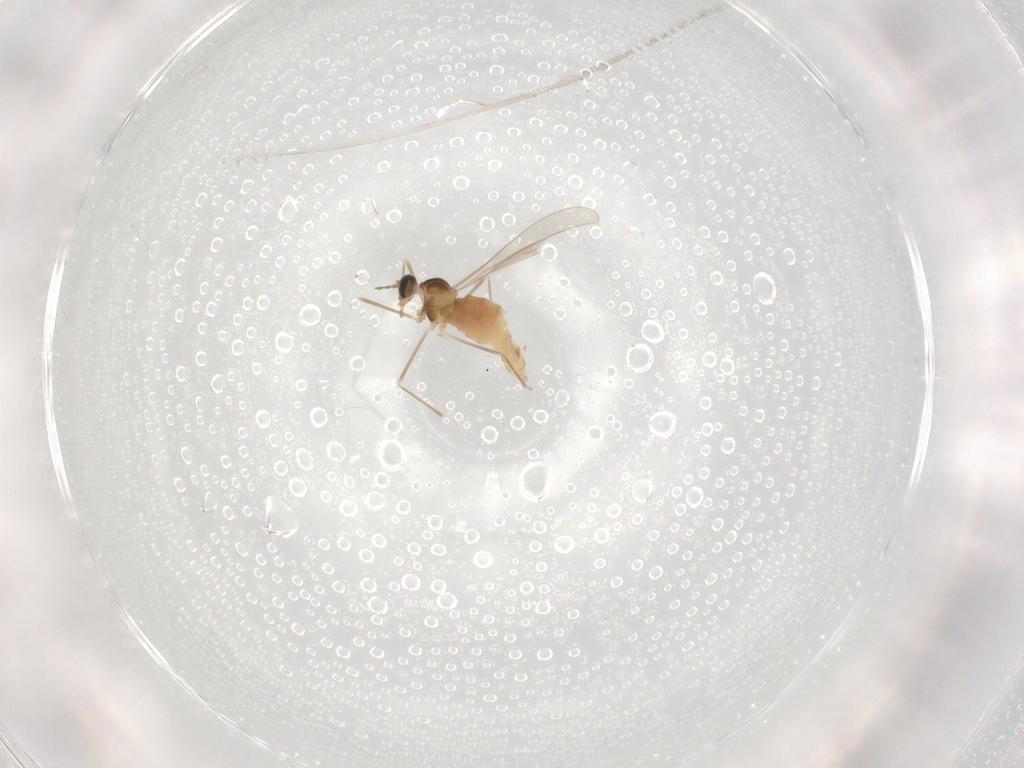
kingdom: Animalia
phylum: Arthropoda
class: Insecta
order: Diptera
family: Cecidomyiidae
